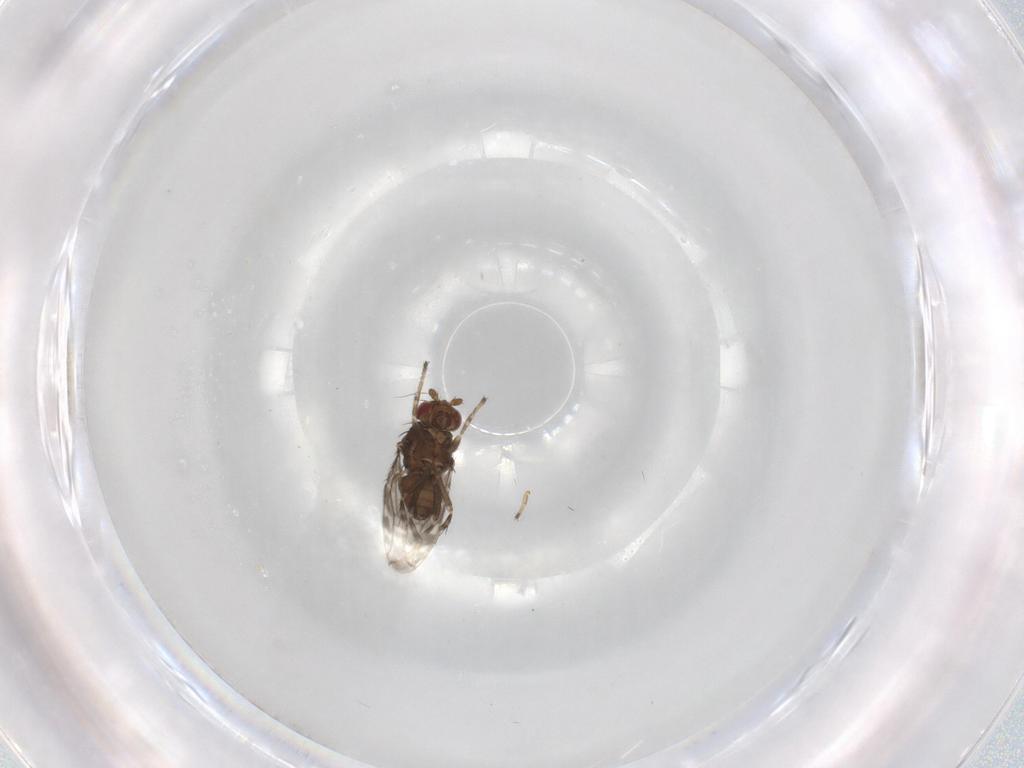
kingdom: Animalia
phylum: Arthropoda
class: Insecta
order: Diptera
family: Sphaeroceridae
